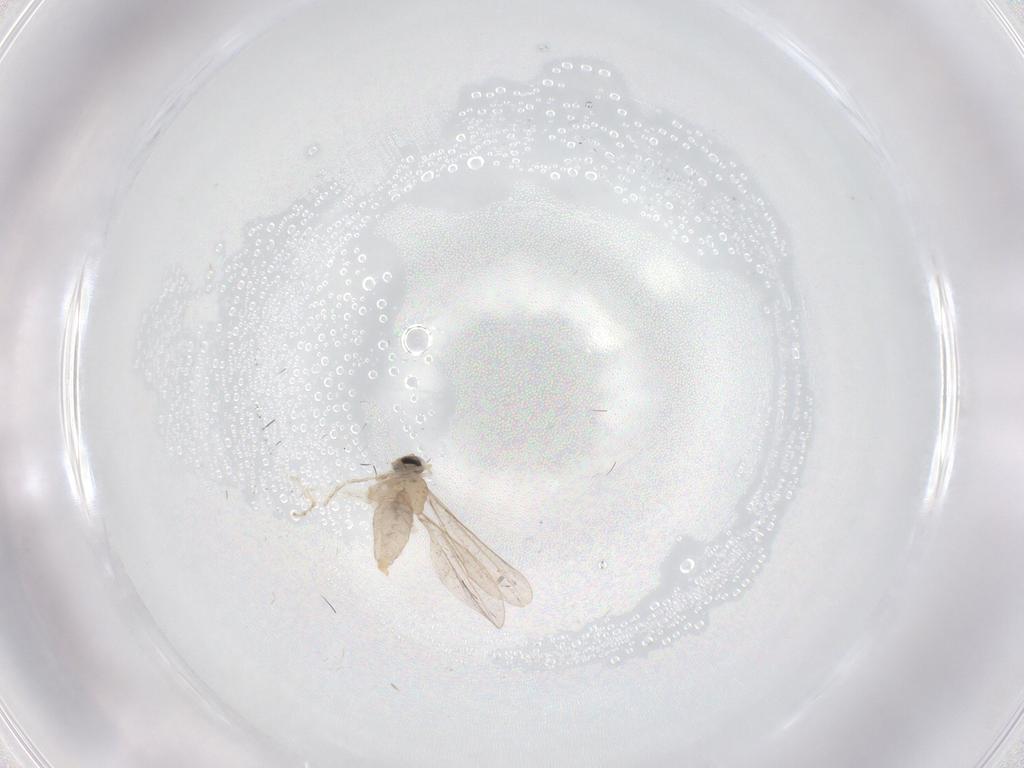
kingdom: Animalia
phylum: Arthropoda
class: Insecta
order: Diptera
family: Cecidomyiidae
